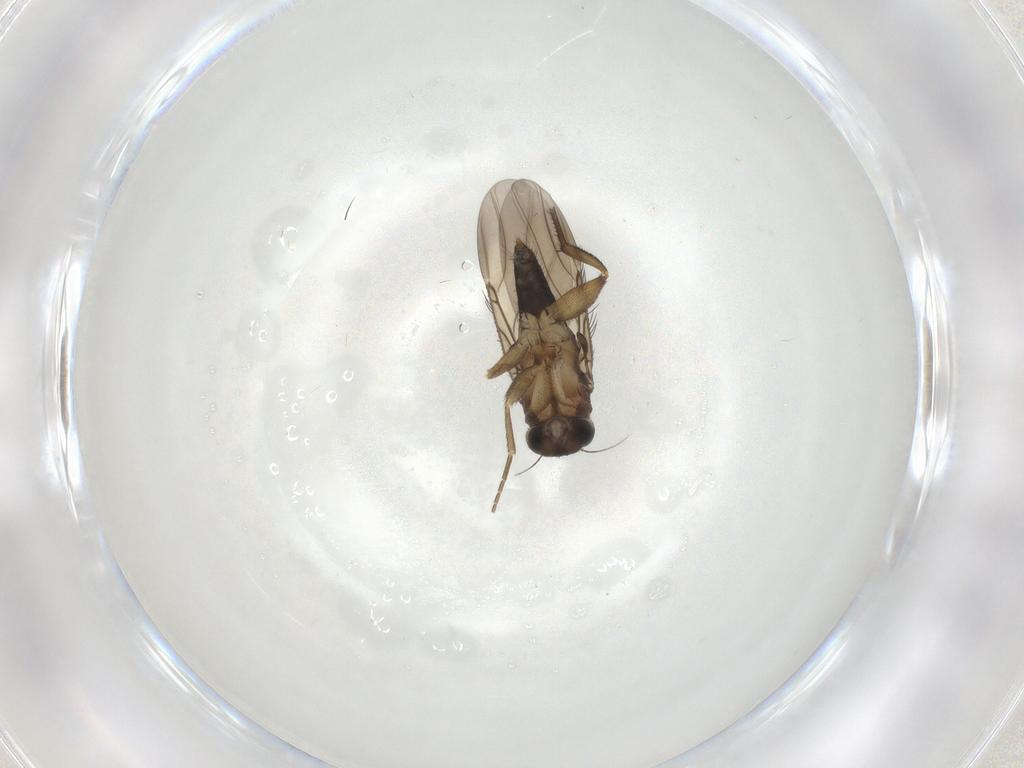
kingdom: Animalia
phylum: Arthropoda
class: Insecta
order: Diptera
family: Phoridae
